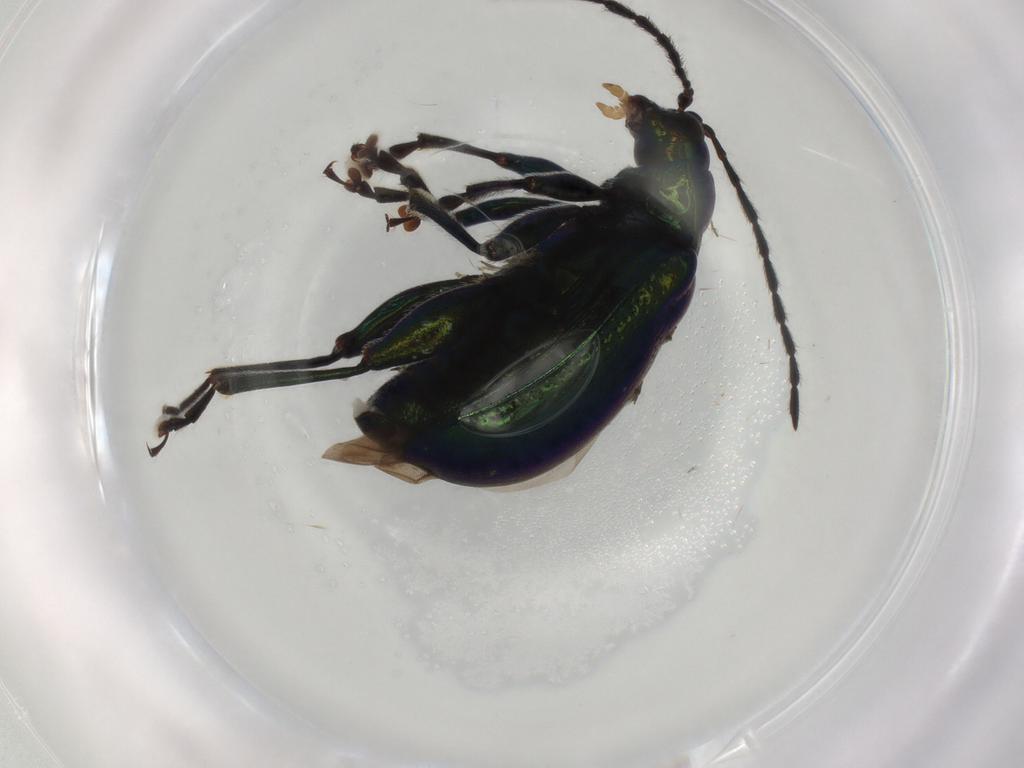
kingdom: Animalia
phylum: Arthropoda
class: Insecta
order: Coleoptera
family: Chrysomelidae
